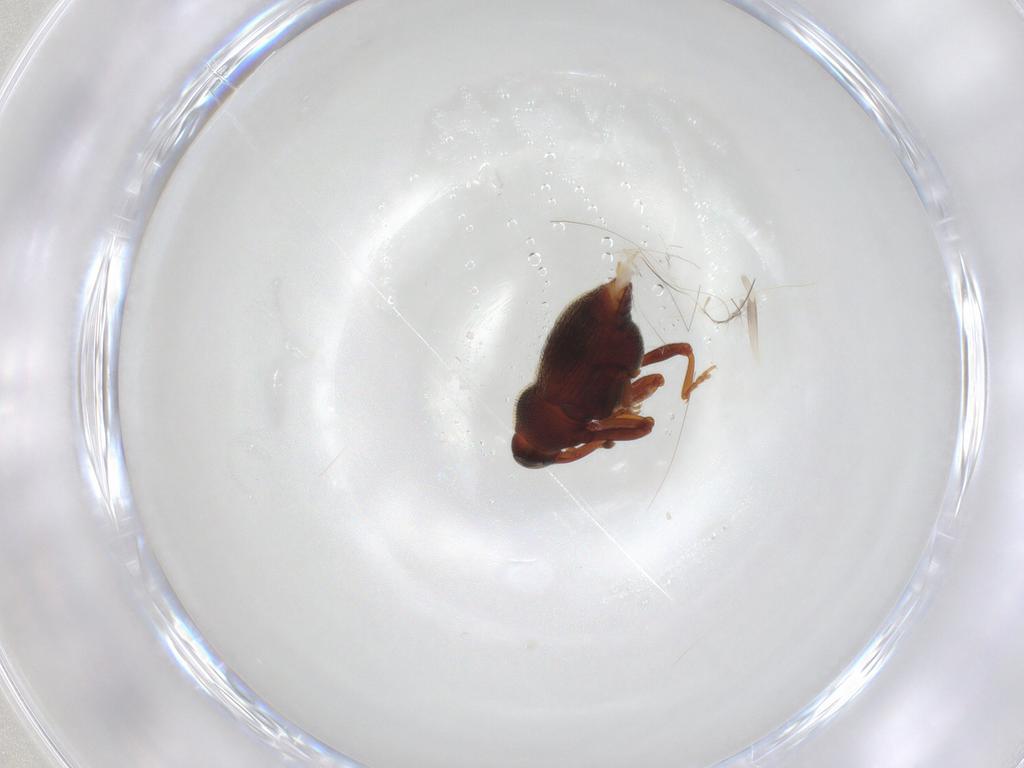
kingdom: Animalia
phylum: Arthropoda
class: Insecta
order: Coleoptera
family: Curculionidae
